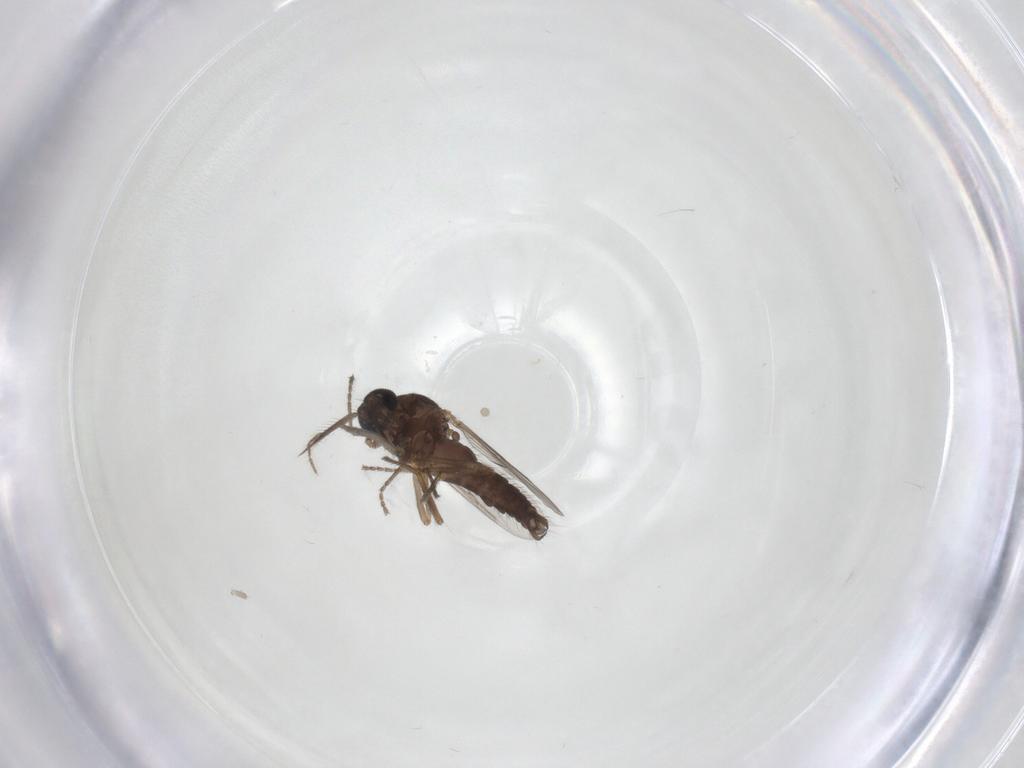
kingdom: Animalia
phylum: Arthropoda
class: Insecta
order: Diptera
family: Ceratopogonidae
